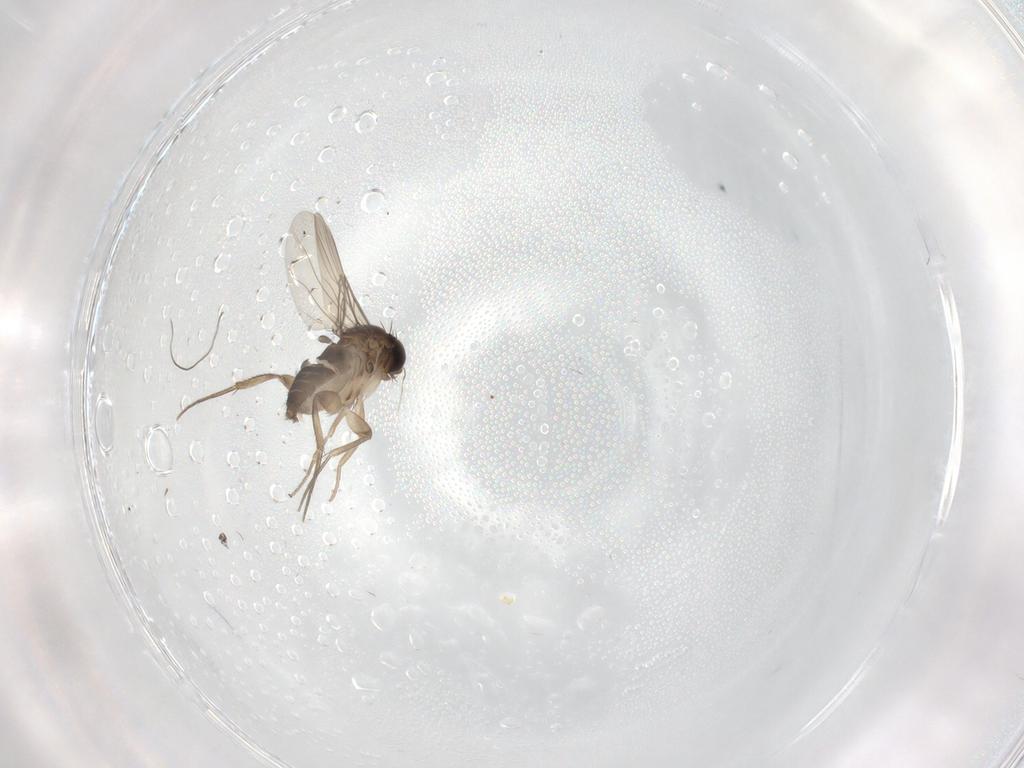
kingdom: Animalia
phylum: Arthropoda
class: Insecta
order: Diptera
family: Phoridae
